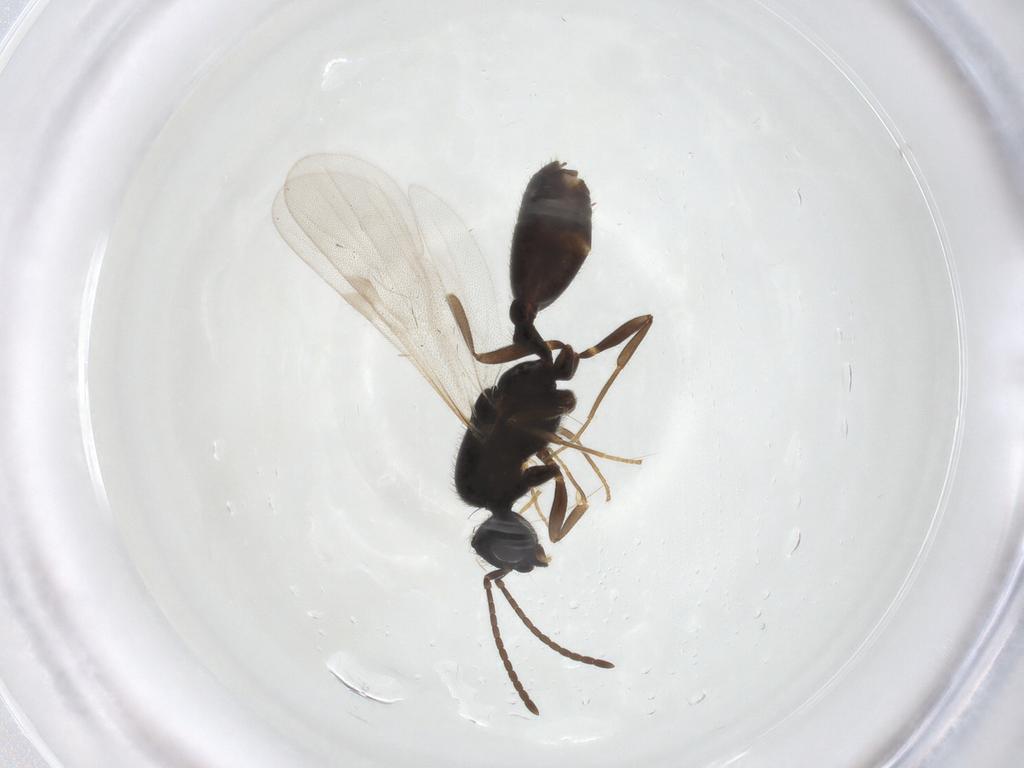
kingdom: Animalia
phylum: Arthropoda
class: Insecta
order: Hymenoptera
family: Formicidae
